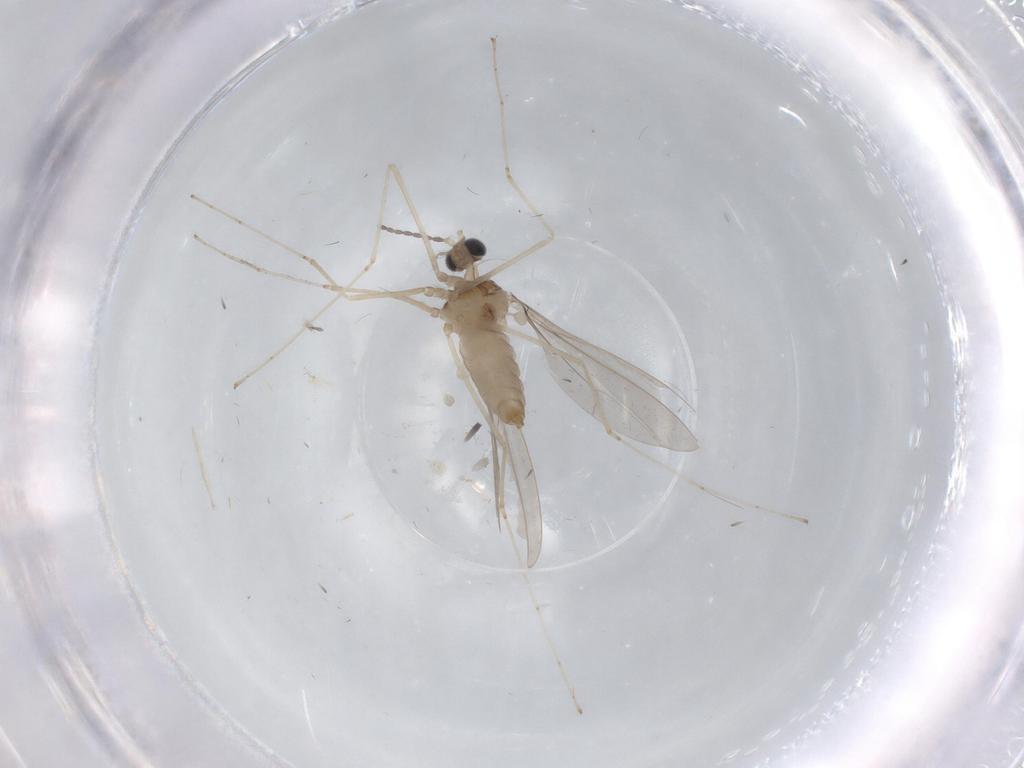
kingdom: Animalia
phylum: Arthropoda
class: Insecta
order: Diptera
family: Cecidomyiidae
